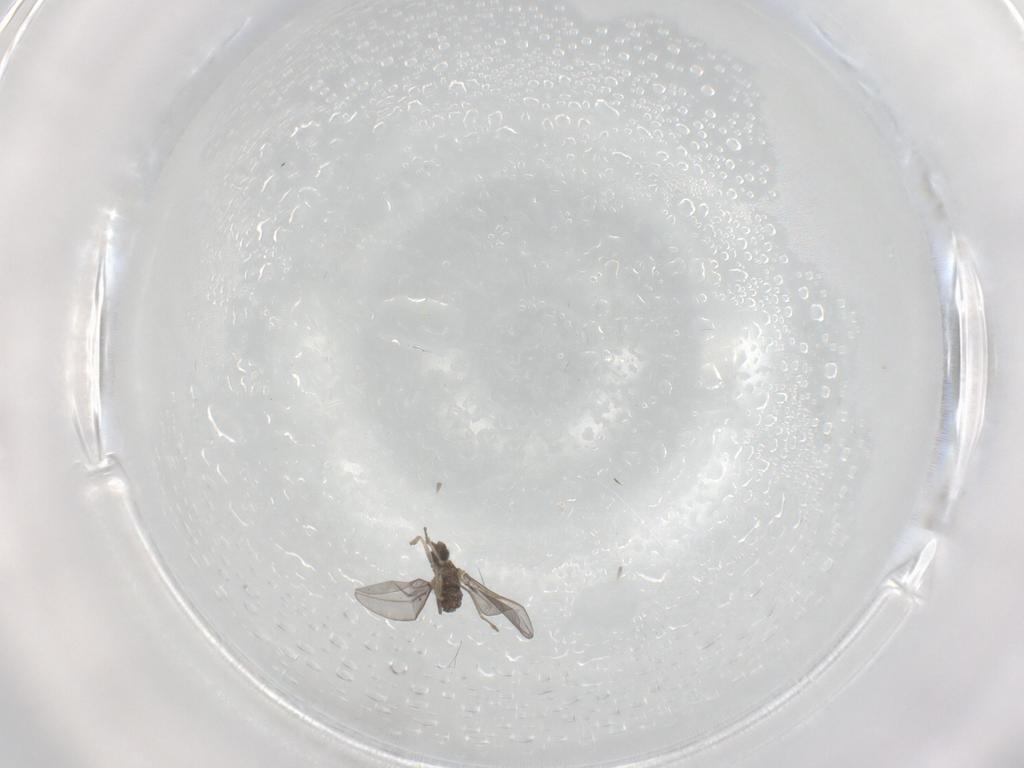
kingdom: Animalia
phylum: Arthropoda
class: Insecta
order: Diptera
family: Cecidomyiidae
